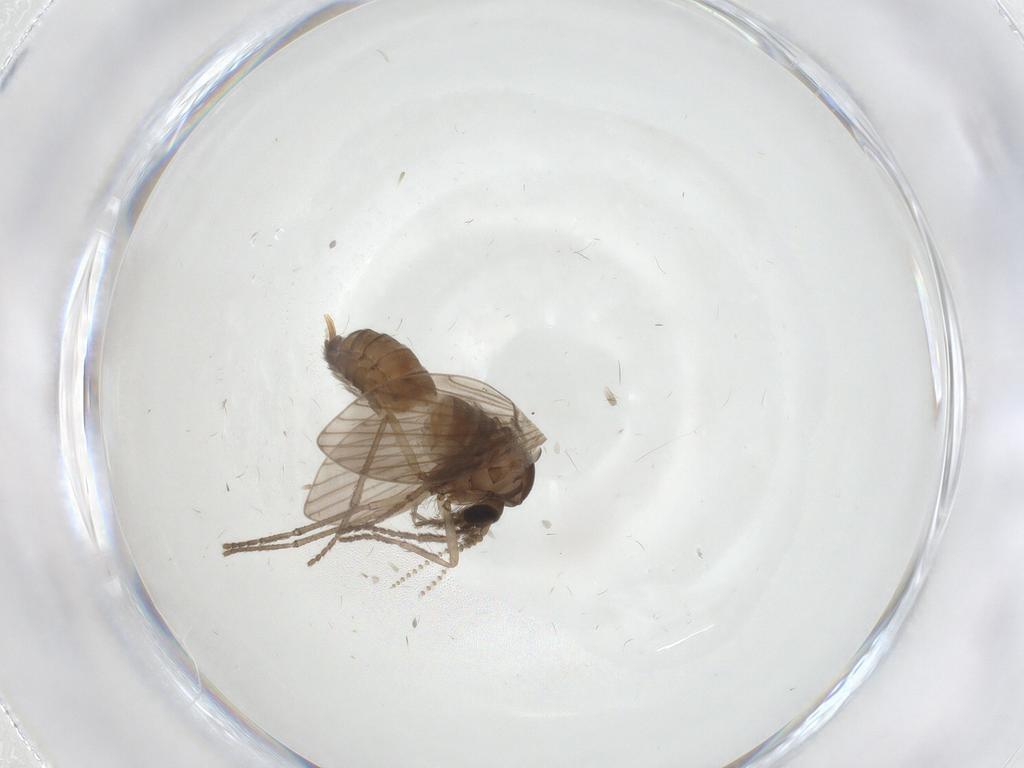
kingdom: Animalia
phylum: Arthropoda
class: Insecta
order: Diptera
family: Psychodidae
